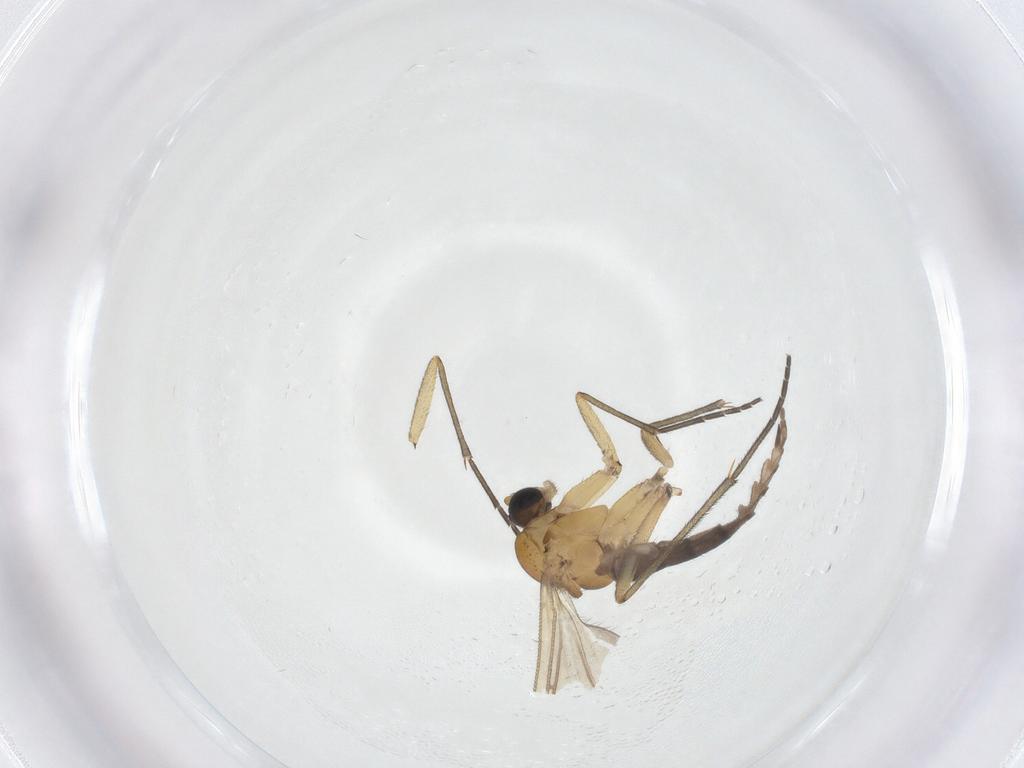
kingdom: Animalia
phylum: Arthropoda
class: Insecta
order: Diptera
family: Sciaridae
